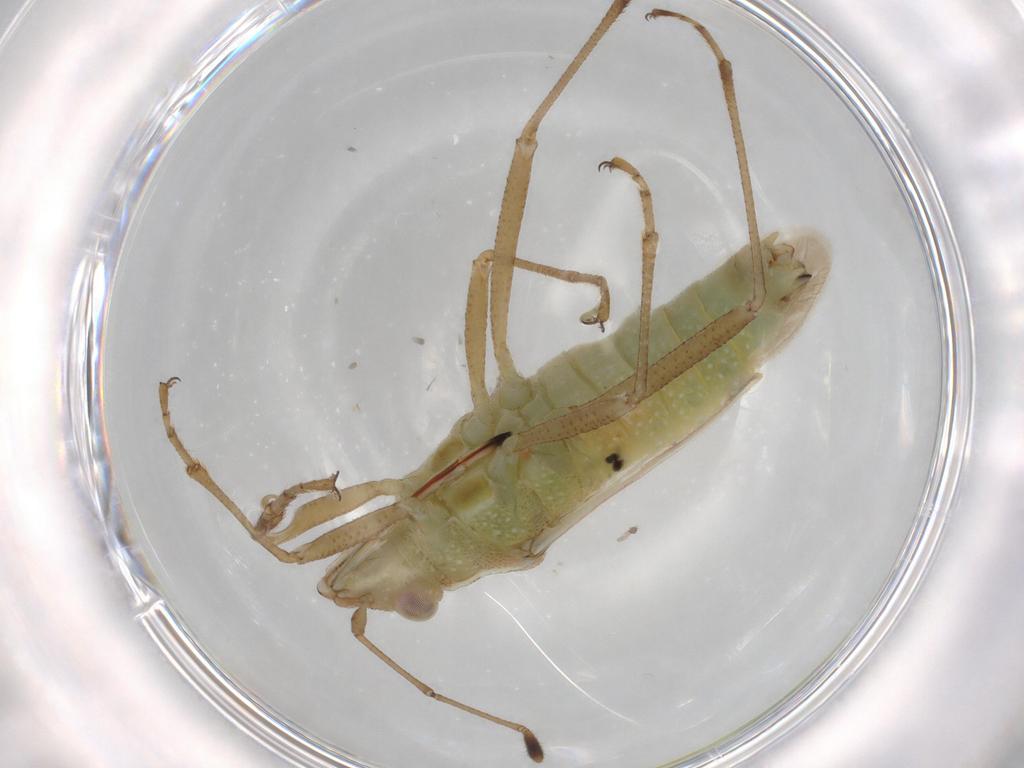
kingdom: Animalia
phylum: Arthropoda
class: Insecta
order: Hemiptera
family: Rhopalidae
